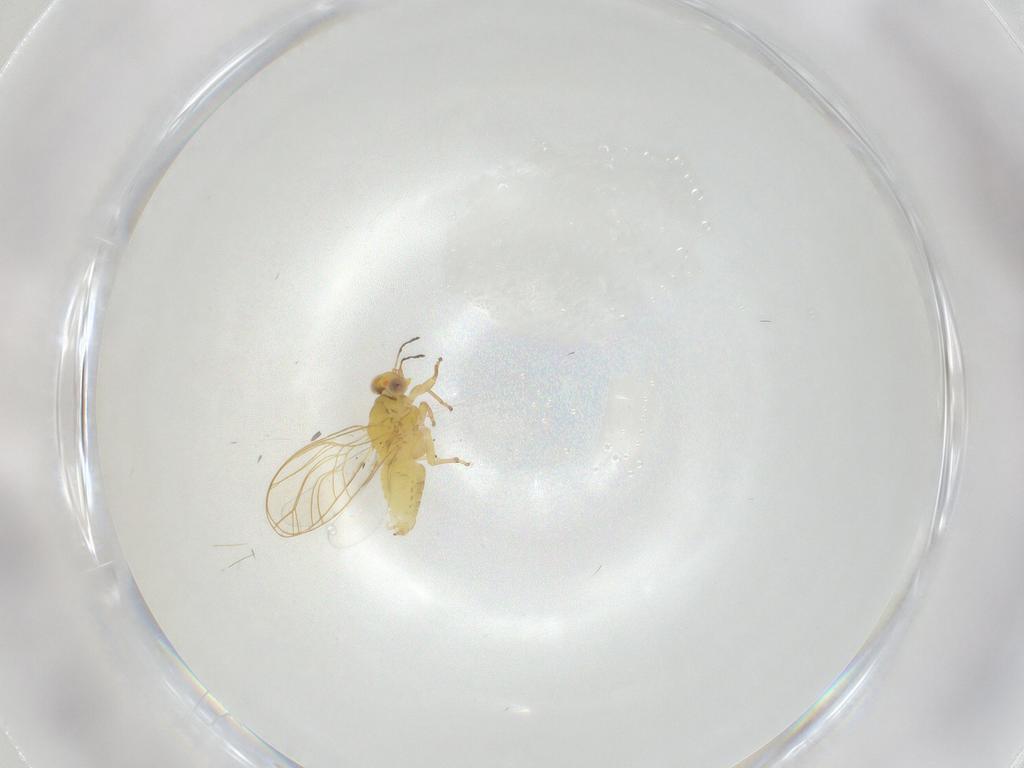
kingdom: Animalia
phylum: Arthropoda
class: Insecta
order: Hemiptera
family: Psylloidea_incertae_sedis
